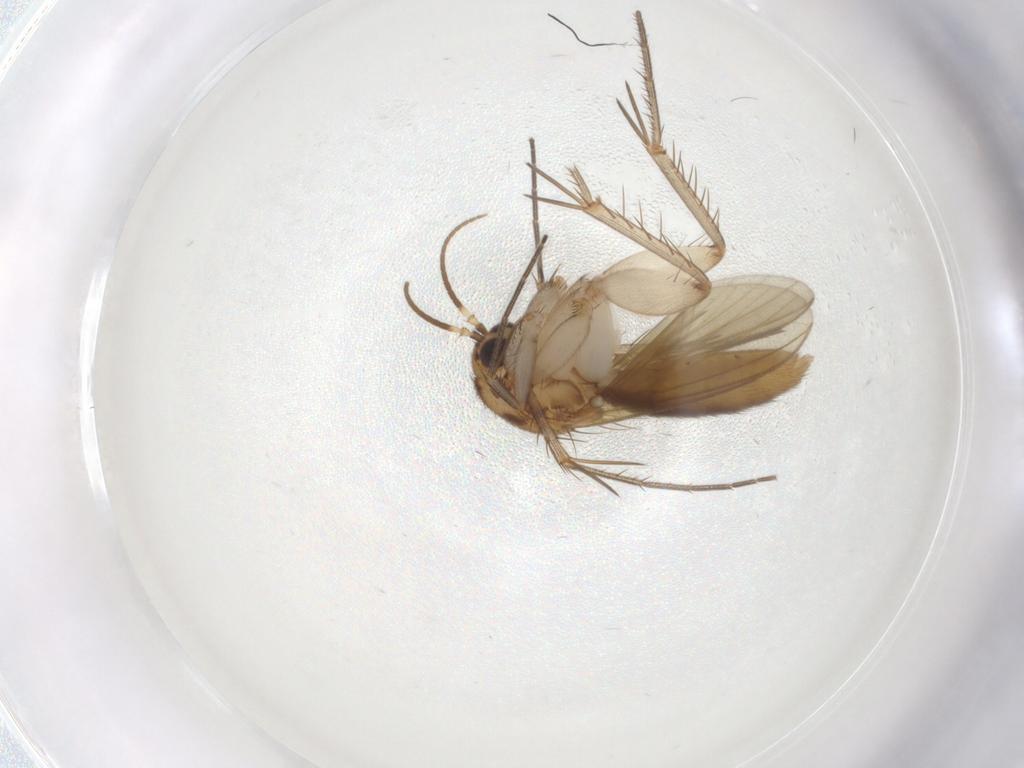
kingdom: Animalia
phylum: Arthropoda
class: Insecta
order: Diptera
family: Mycetophilidae
